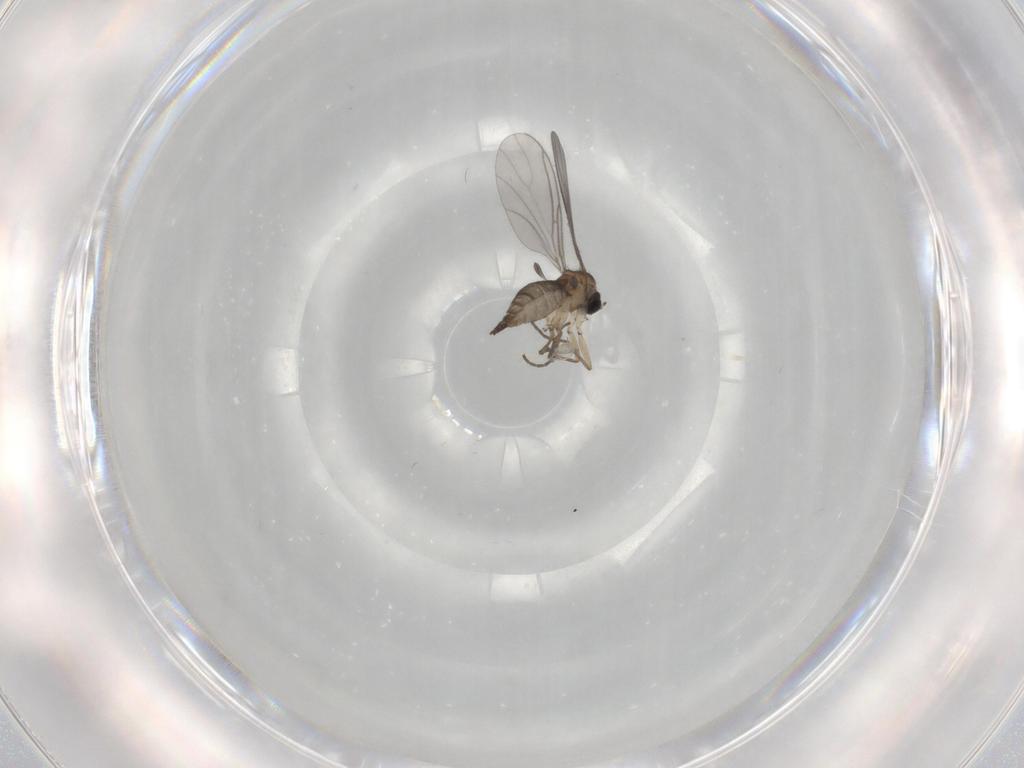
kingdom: Animalia
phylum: Arthropoda
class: Insecta
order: Diptera
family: Sciaridae
